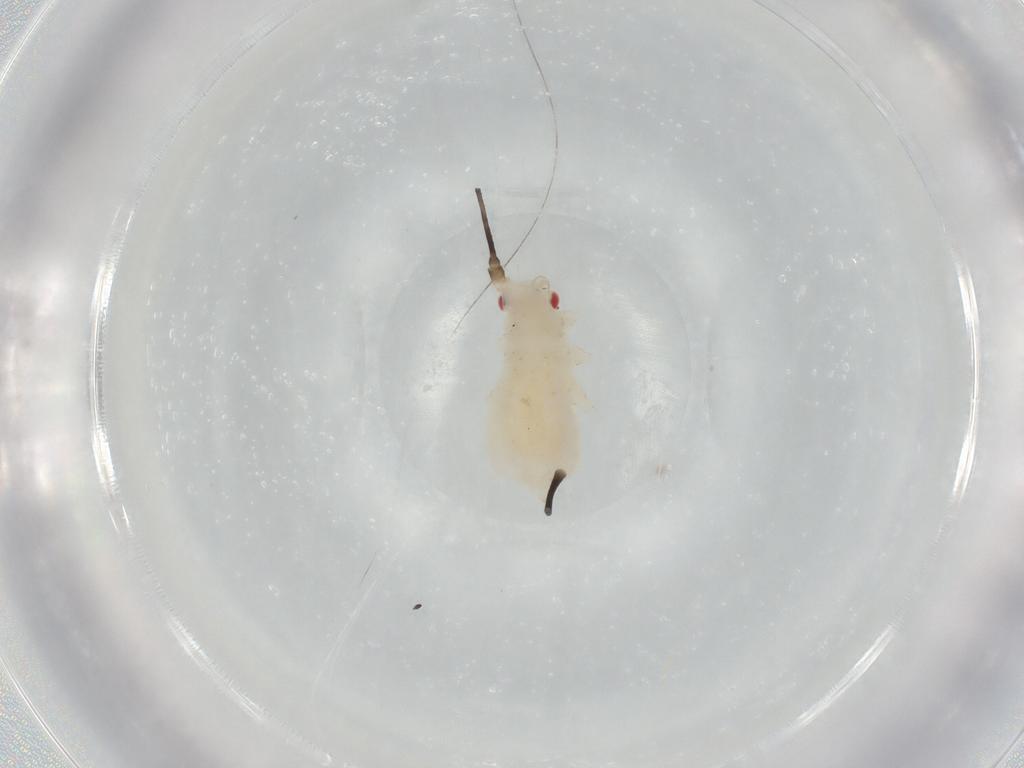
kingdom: Animalia
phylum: Arthropoda
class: Insecta
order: Hemiptera
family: Aphididae
